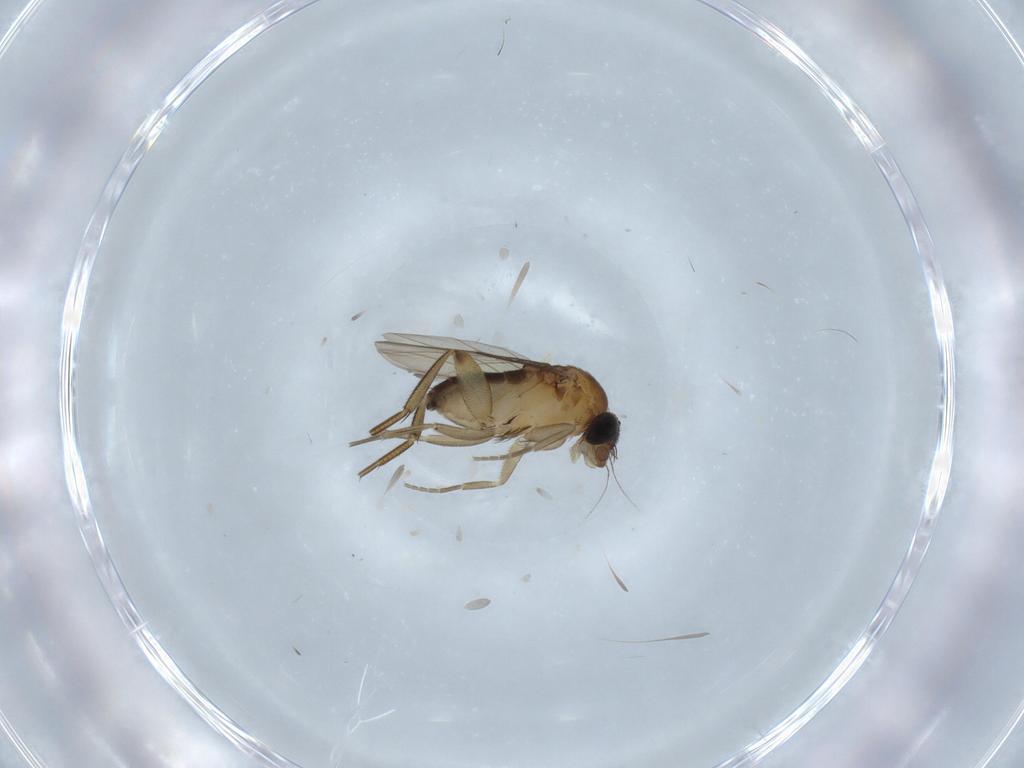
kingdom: Animalia
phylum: Arthropoda
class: Insecta
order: Diptera
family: Phoridae
